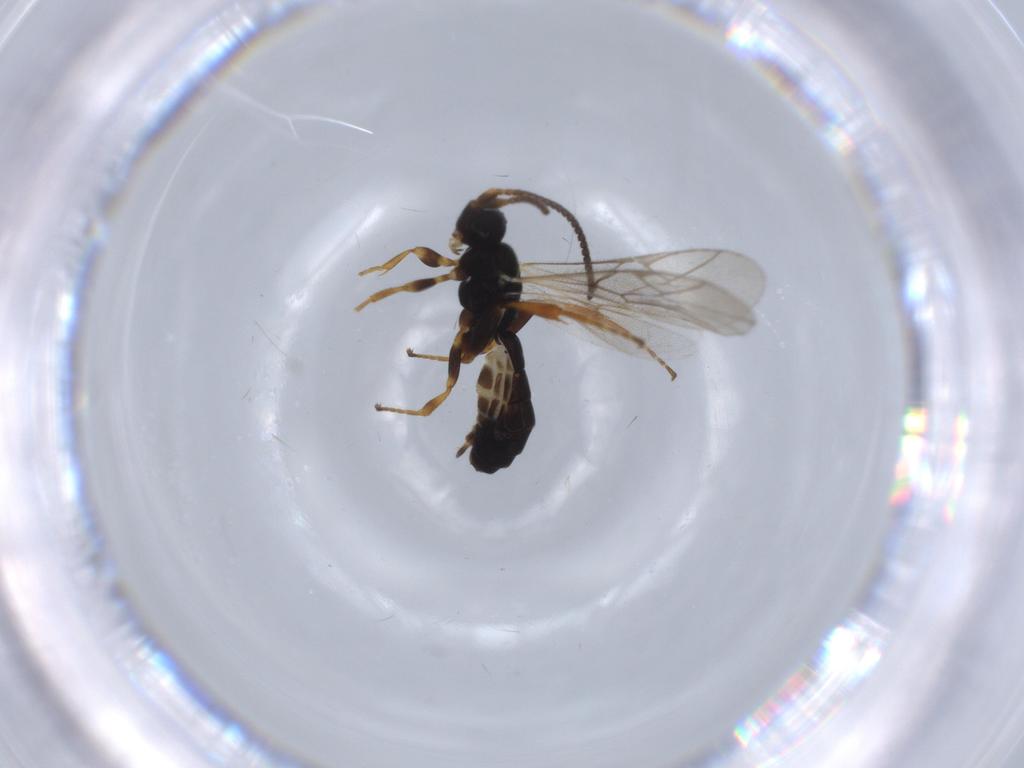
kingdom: Animalia
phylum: Arthropoda
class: Insecta
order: Hymenoptera
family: Ichneumonidae
